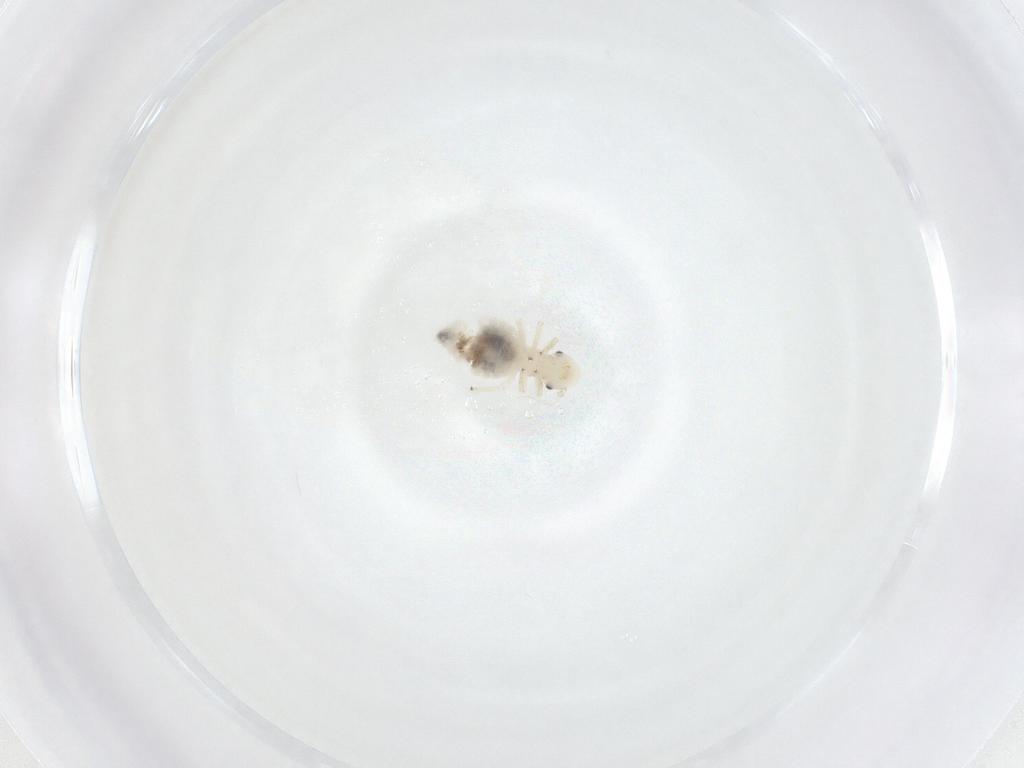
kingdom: Animalia
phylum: Arthropoda
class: Insecta
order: Psocodea
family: Amphipsocidae
